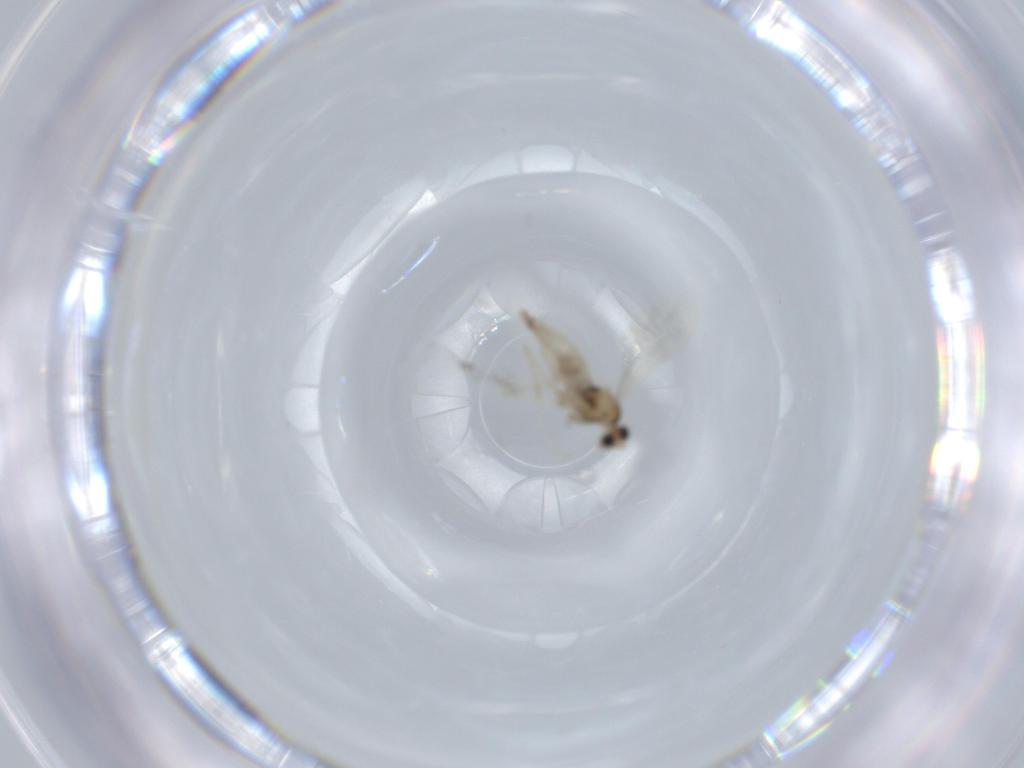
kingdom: Animalia
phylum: Arthropoda
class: Insecta
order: Diptera
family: Cecidomyiidae
